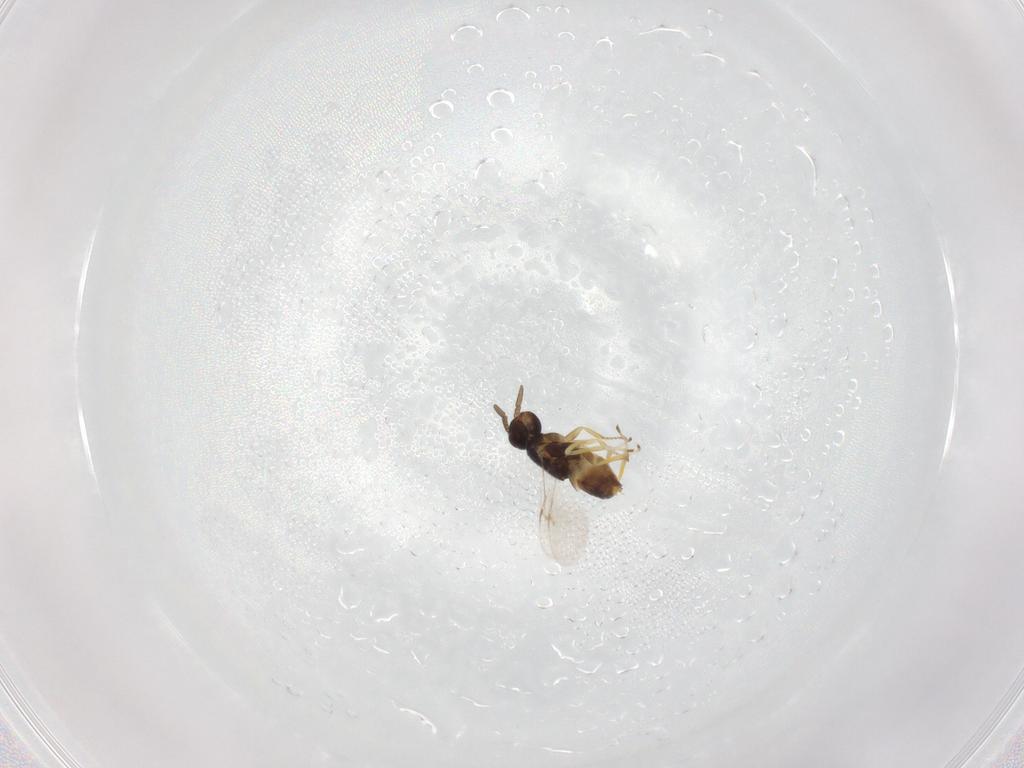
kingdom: Animalia
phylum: Arthropoda
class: Insecta
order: Hymenoptera
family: Encyrtidae
